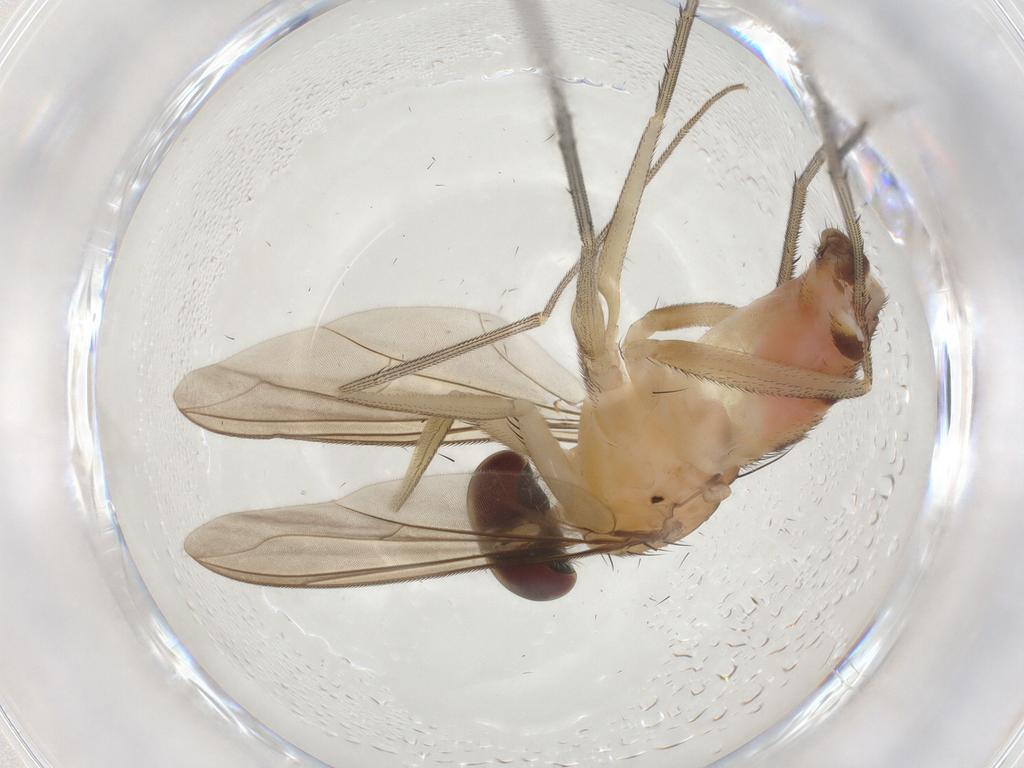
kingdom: Animalia
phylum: Arthropoda
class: Insecta
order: Diptera
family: Dolichopodidae
